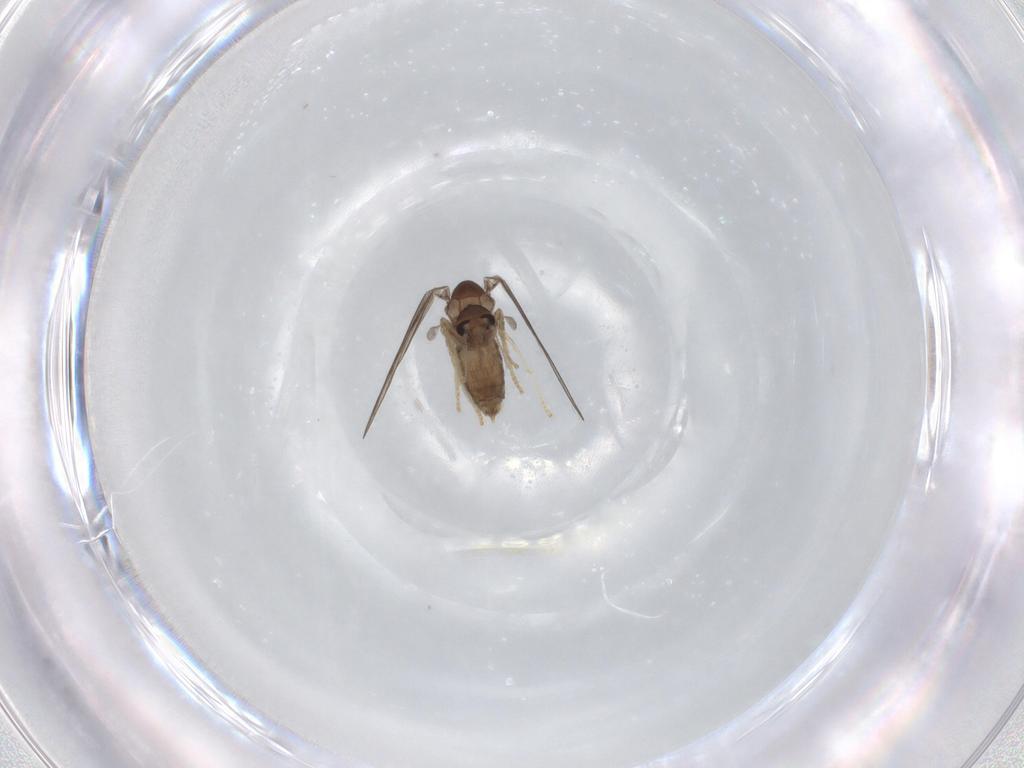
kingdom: Animalia
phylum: Arthropoda
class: Insecta
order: Diptera
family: Psychodidae
